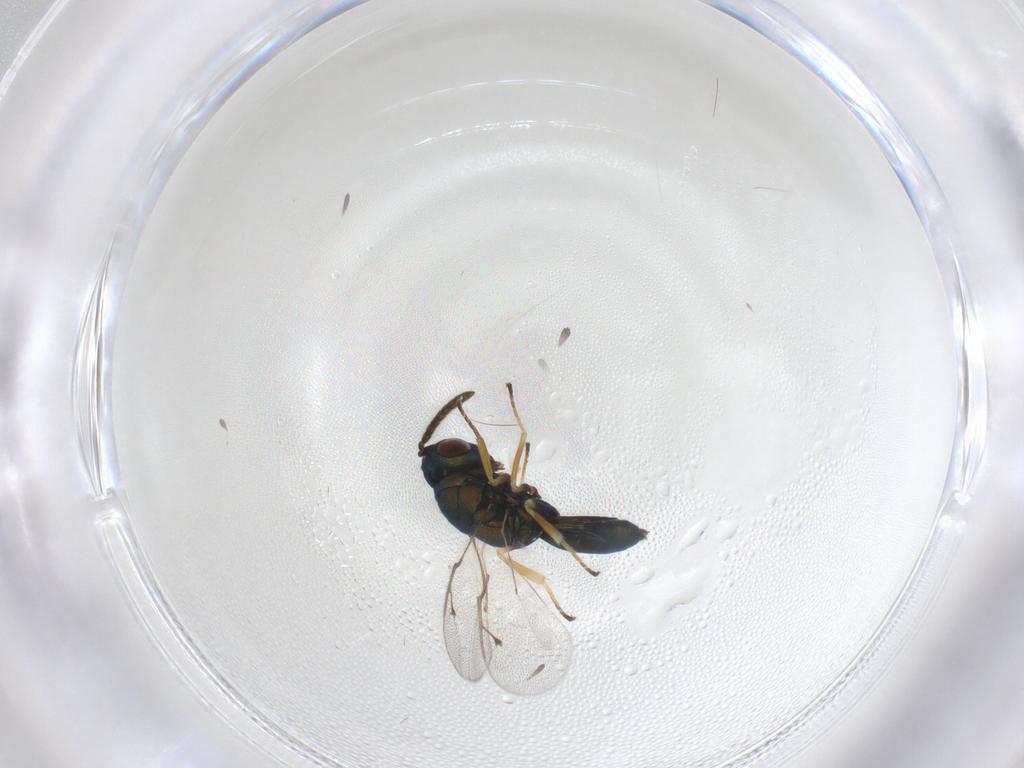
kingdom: Animalia
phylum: Arthropoda
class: Insecta
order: Hymenoptera
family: Pteromalidae
